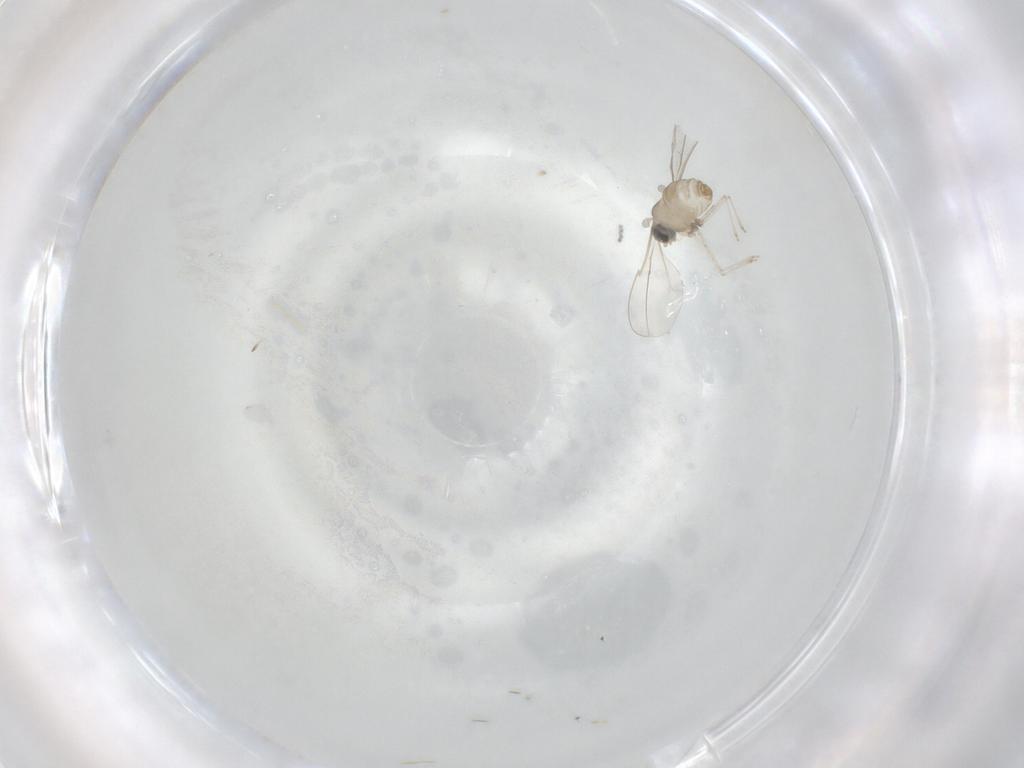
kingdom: Animalia
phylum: Arthropoda
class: Insecta
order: Diptera
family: Cecidomyiidae
